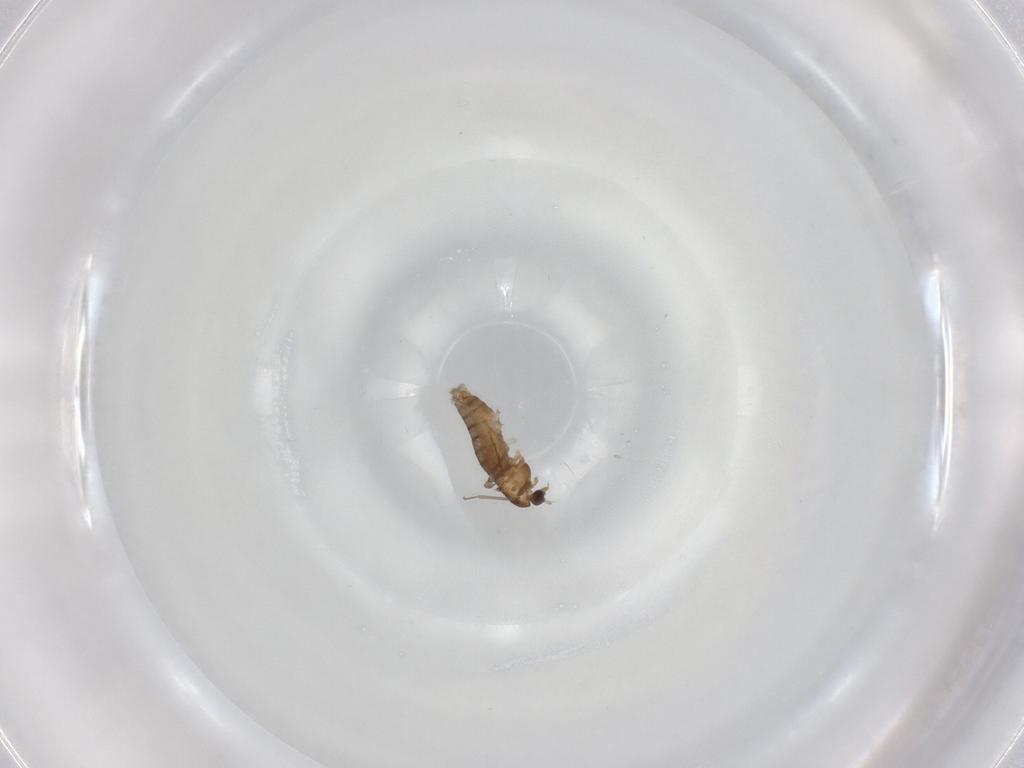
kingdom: Animalia
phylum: Arthropoda
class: Insecta
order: Diptera
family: Chironomidae
